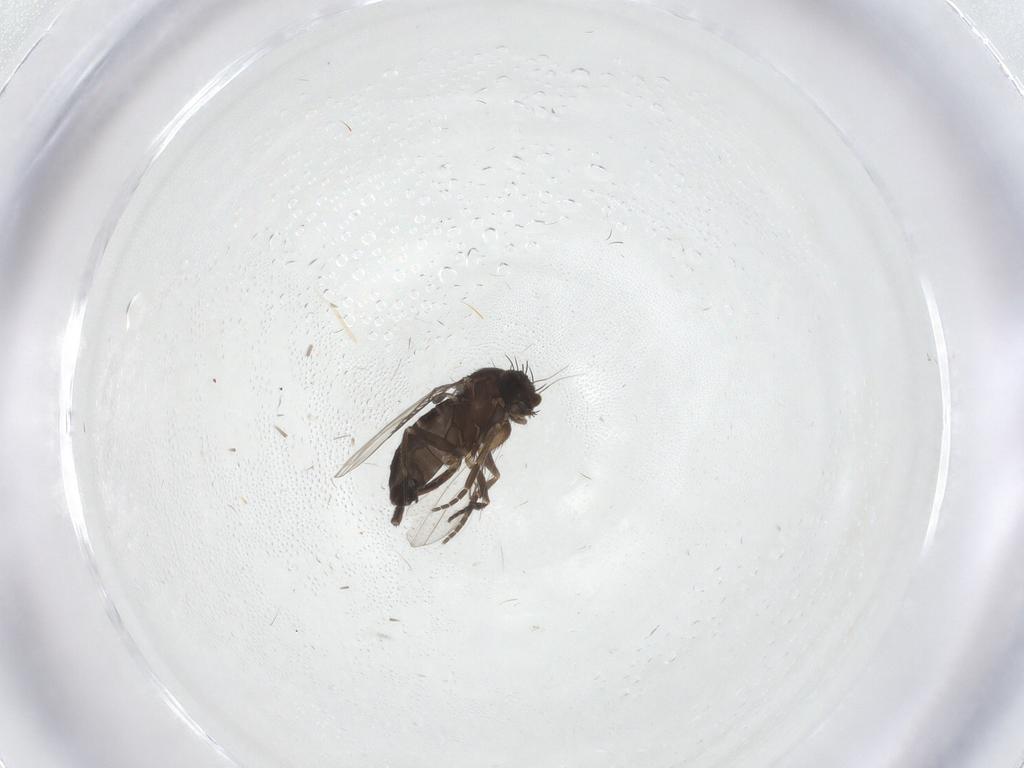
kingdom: Animalia
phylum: Arthropoda
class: Insecta
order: Diptera
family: Phoridae
